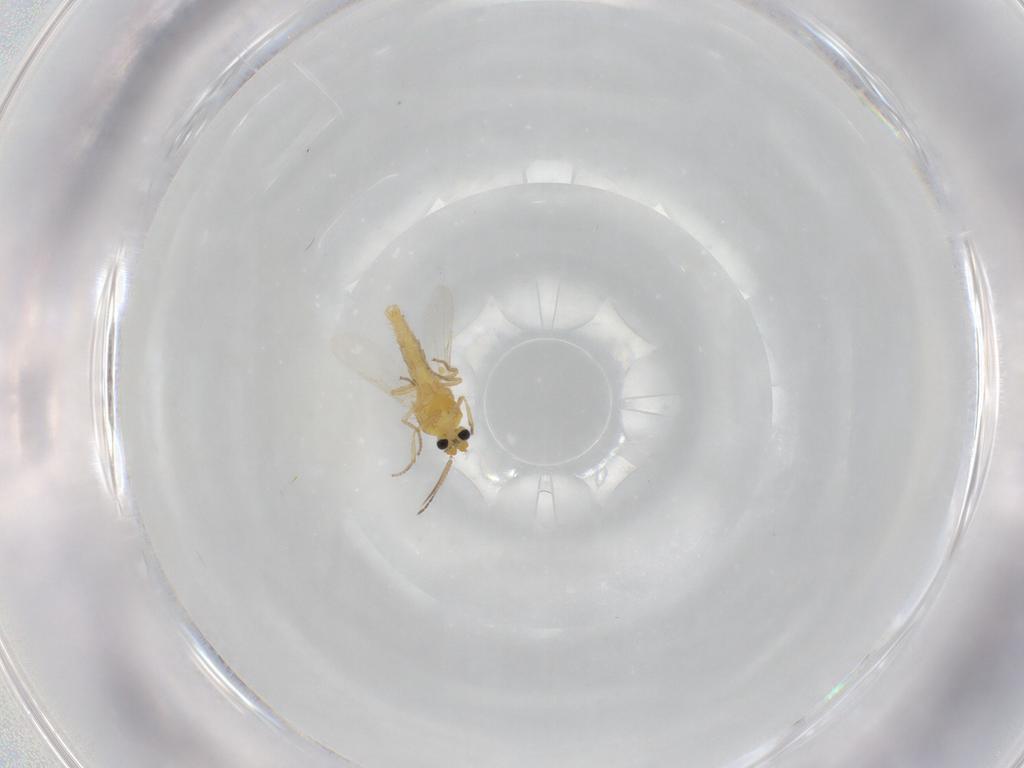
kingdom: Animalia
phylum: Arthropoda
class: Insecta
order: Diptera
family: Ceratopogonidae
